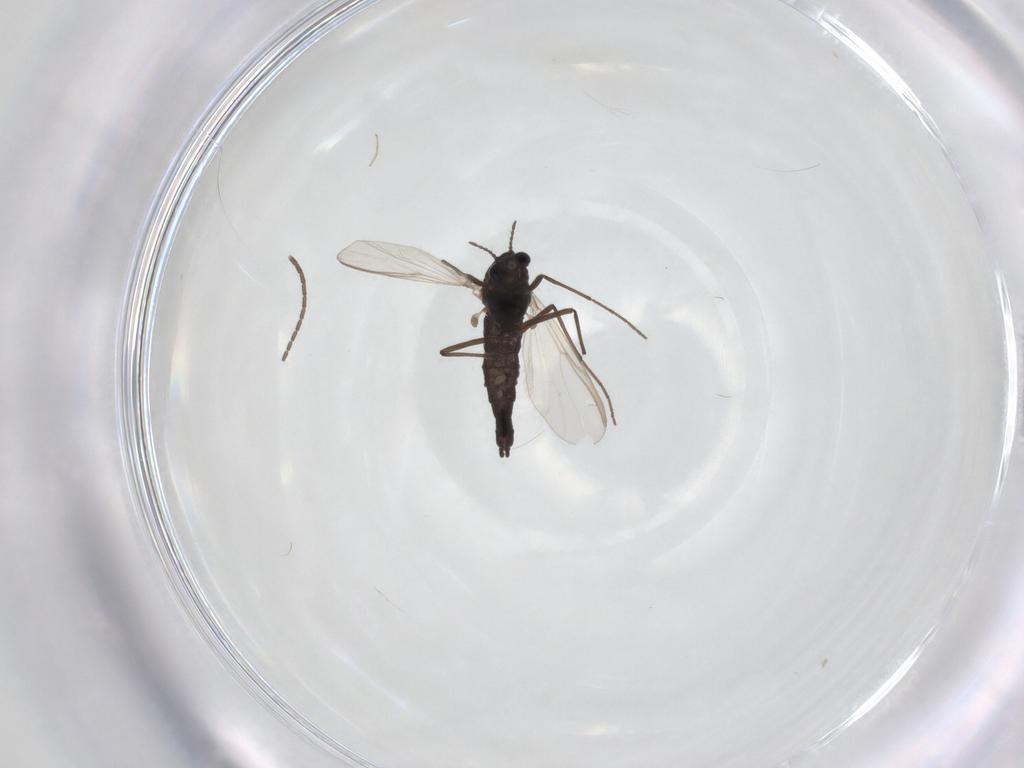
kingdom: Animalia
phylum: Arthropoda
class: Insecta
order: Diptera
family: Chironomidae
